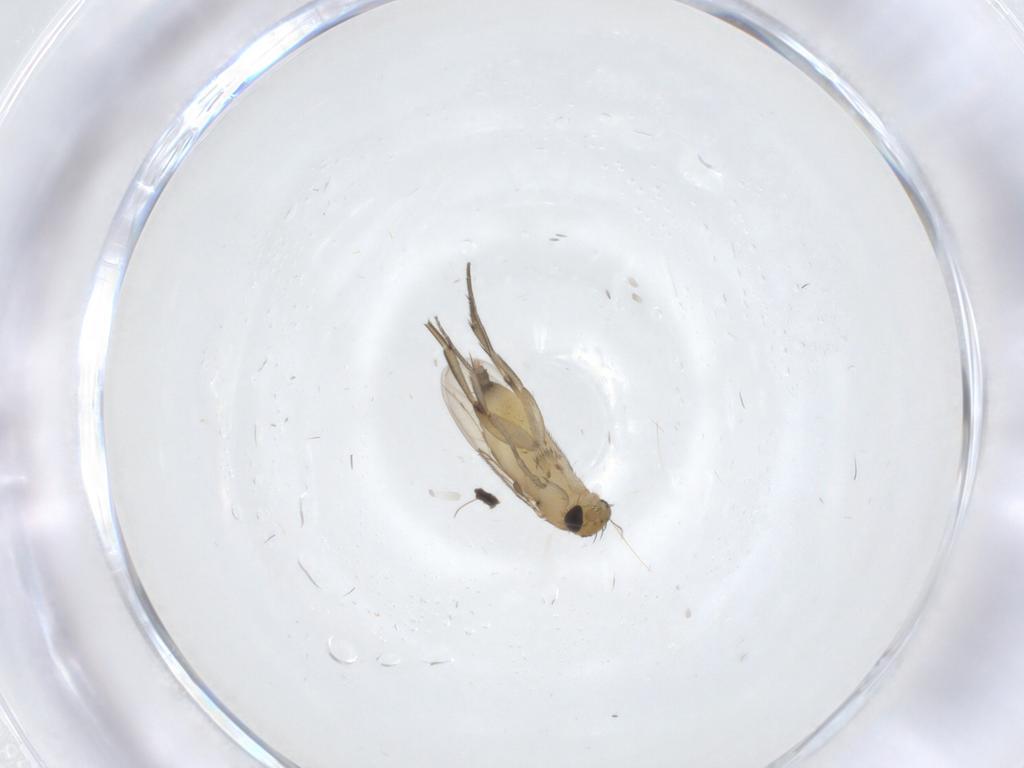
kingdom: Animalia
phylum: Arthropoda
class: Insecta
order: Diptera
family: Phoridae
